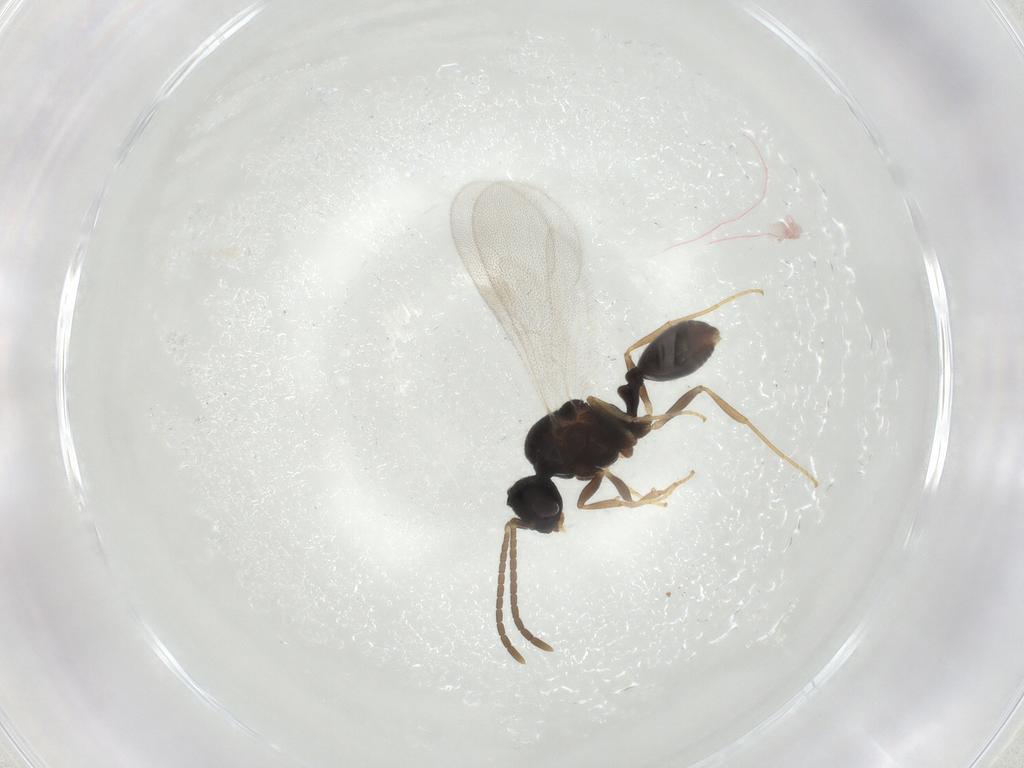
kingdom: Animalia
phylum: Arthropoda
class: Insecta
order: Hymenoptera
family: Formicidae
